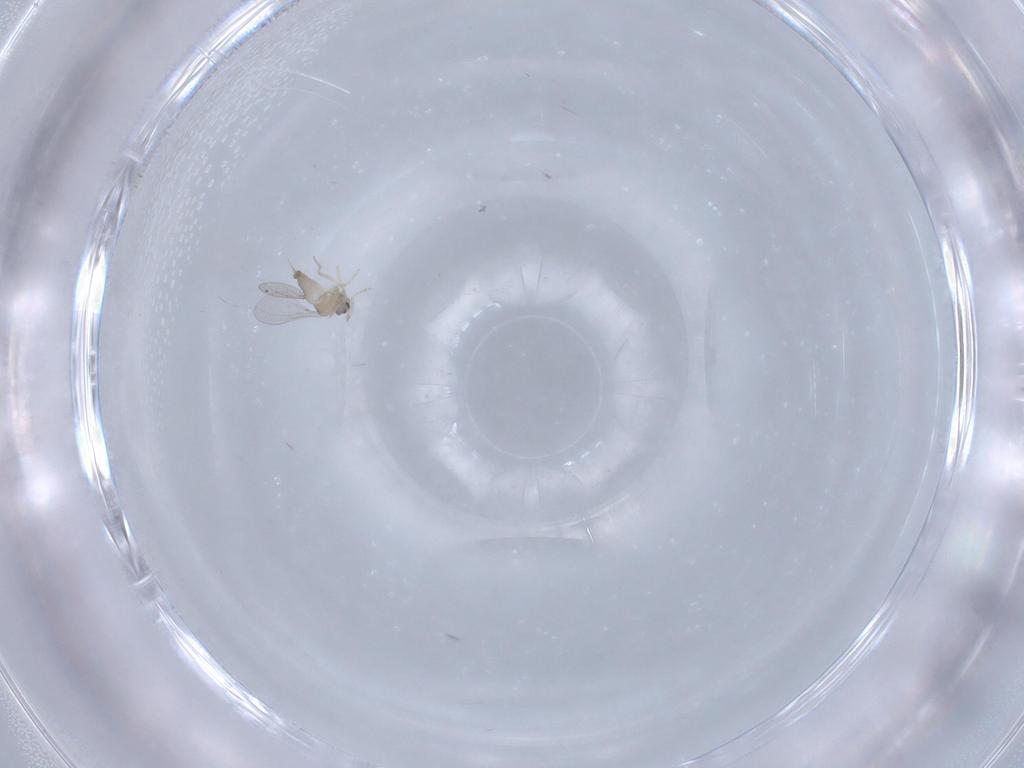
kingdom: Animalia
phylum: Arthropoda
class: Insecta
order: Diptera
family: Cecidomyiidae
